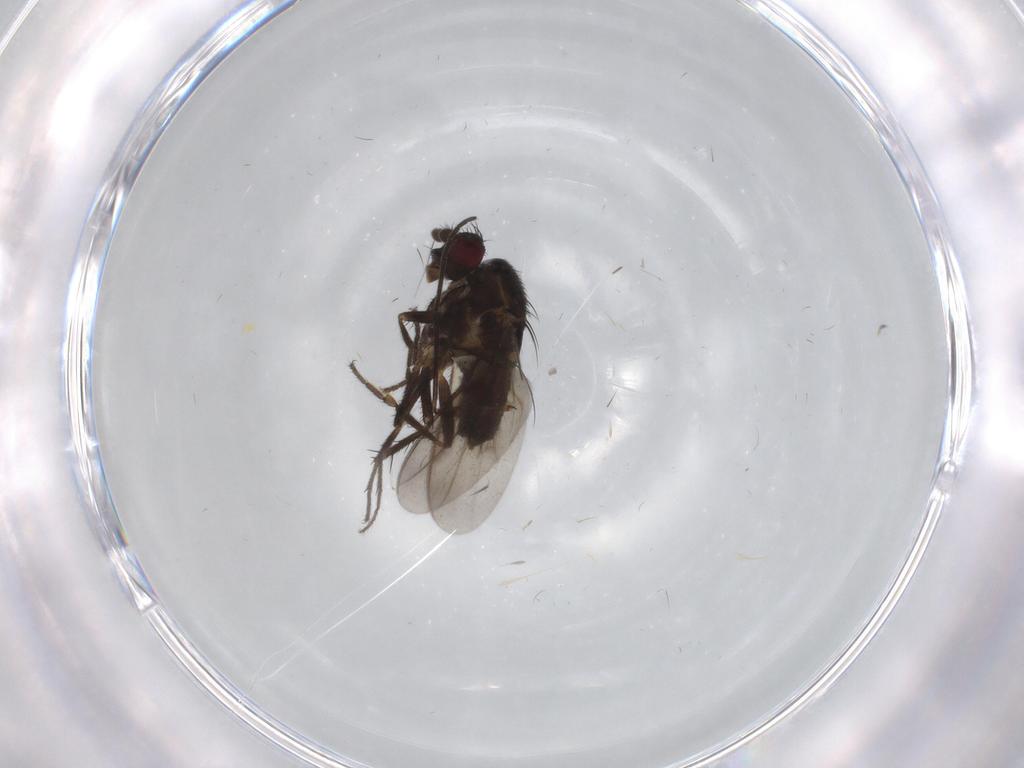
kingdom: Animalia
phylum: Arthropoda
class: Insecta
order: Diptera
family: Sphaeroceridae
